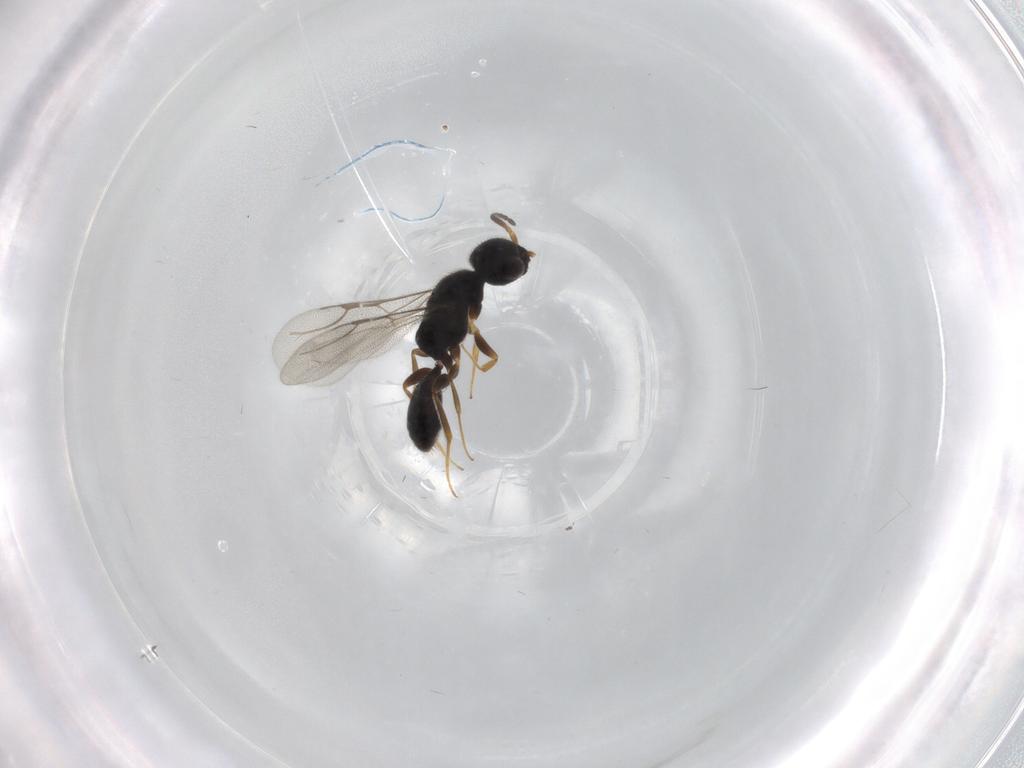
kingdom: Animalia
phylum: Arthropoda
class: Insecta
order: Hymenoptera
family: Bethylidae
